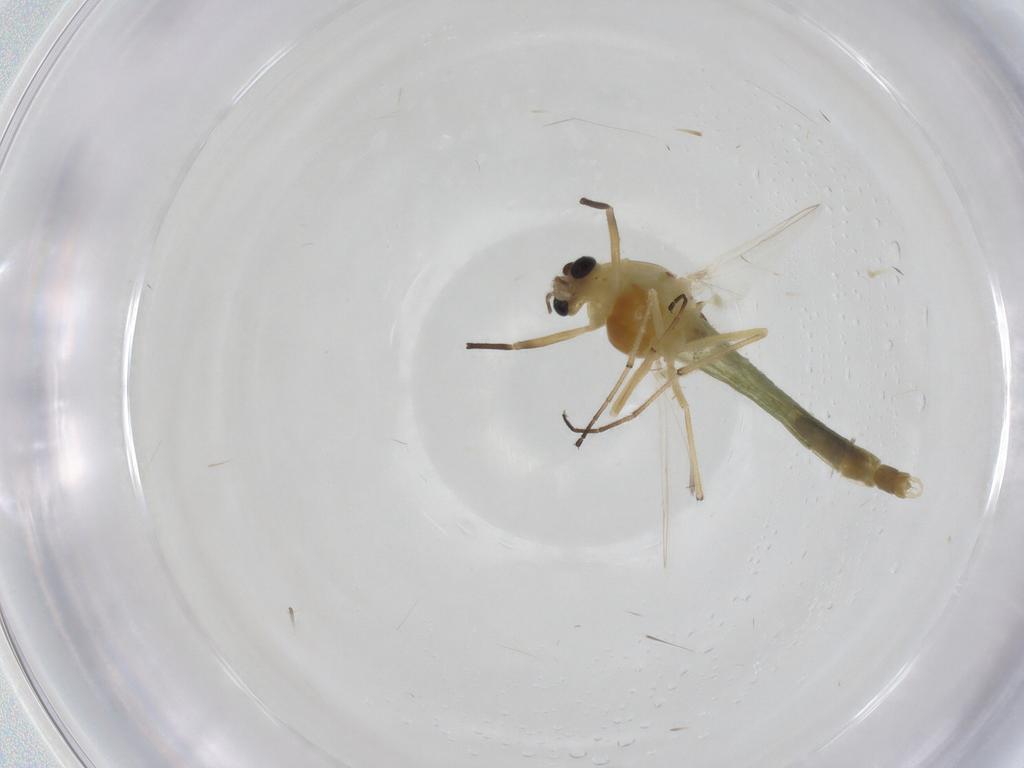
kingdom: Animalia
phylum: Arthropoda
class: Insecta
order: Diptera
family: Chironomidae
